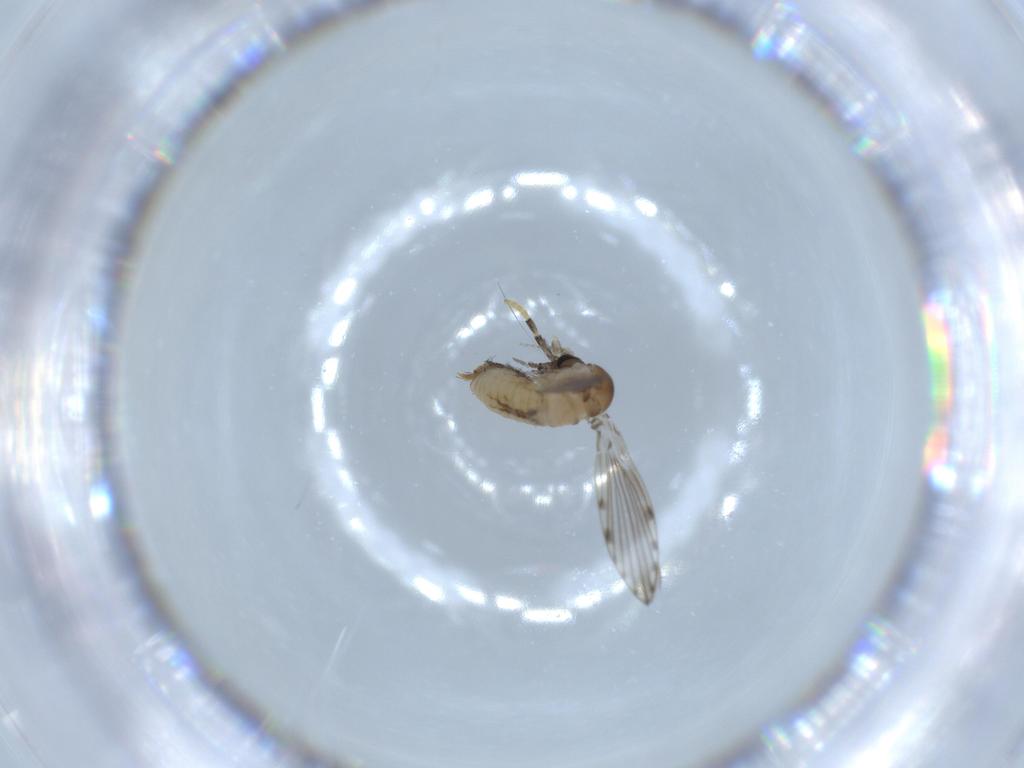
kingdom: Animalia
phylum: Arthropoda
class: Insecta
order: Diptera
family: Psychodidae
